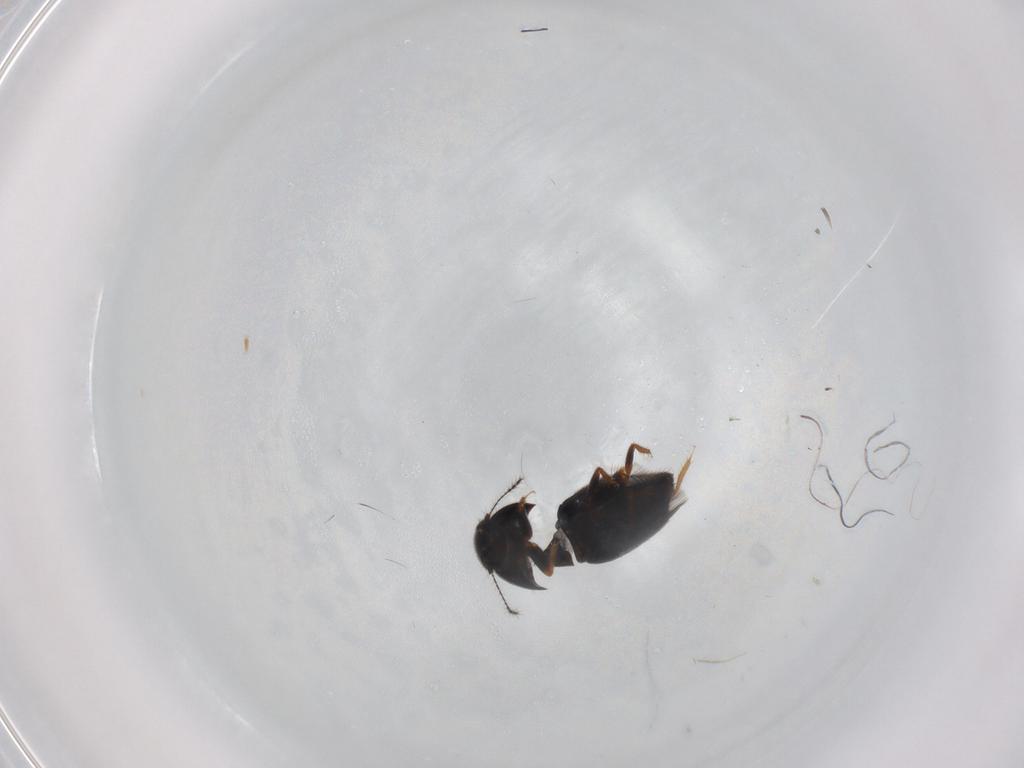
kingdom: Animalia
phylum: Arthropoda
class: Insecta
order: Coleoptera
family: Ptiliidae
